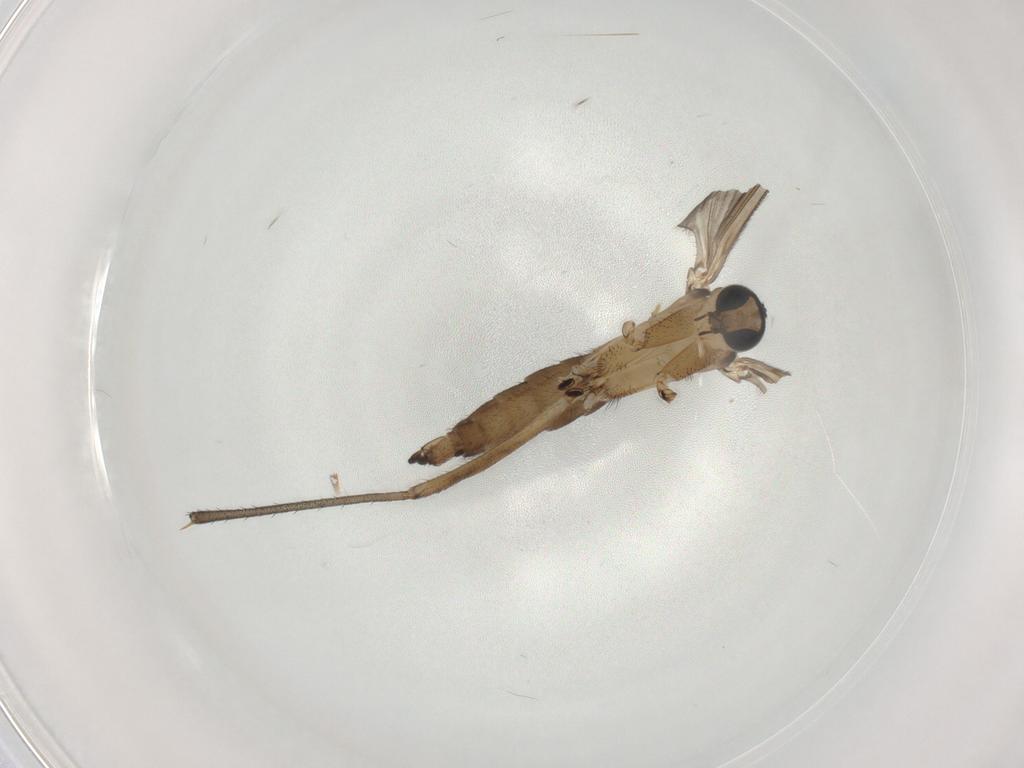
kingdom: Animalia
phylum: Arthropoda
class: Insecta
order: Diptera
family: Sciaridae
